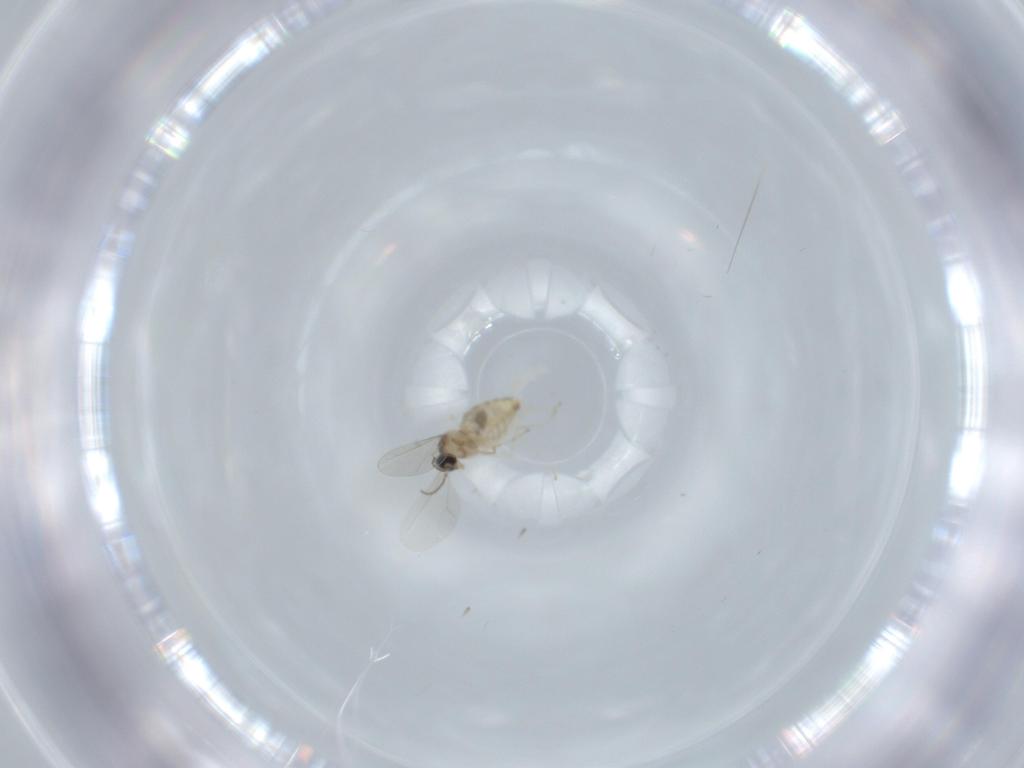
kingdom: Animalia
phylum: Arthropoda
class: Insecta
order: Diptera
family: Cecidomyiidae
